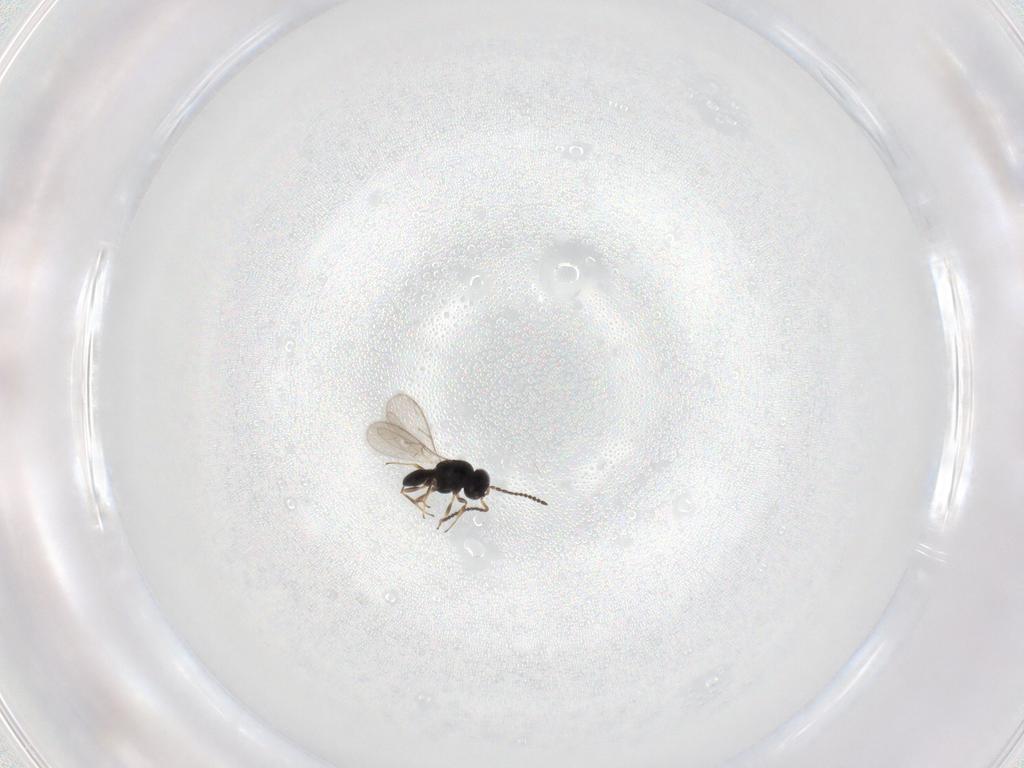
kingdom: Animalia
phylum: Arthropoda
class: Insecta
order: Hymenoptera
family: Scelionidae
